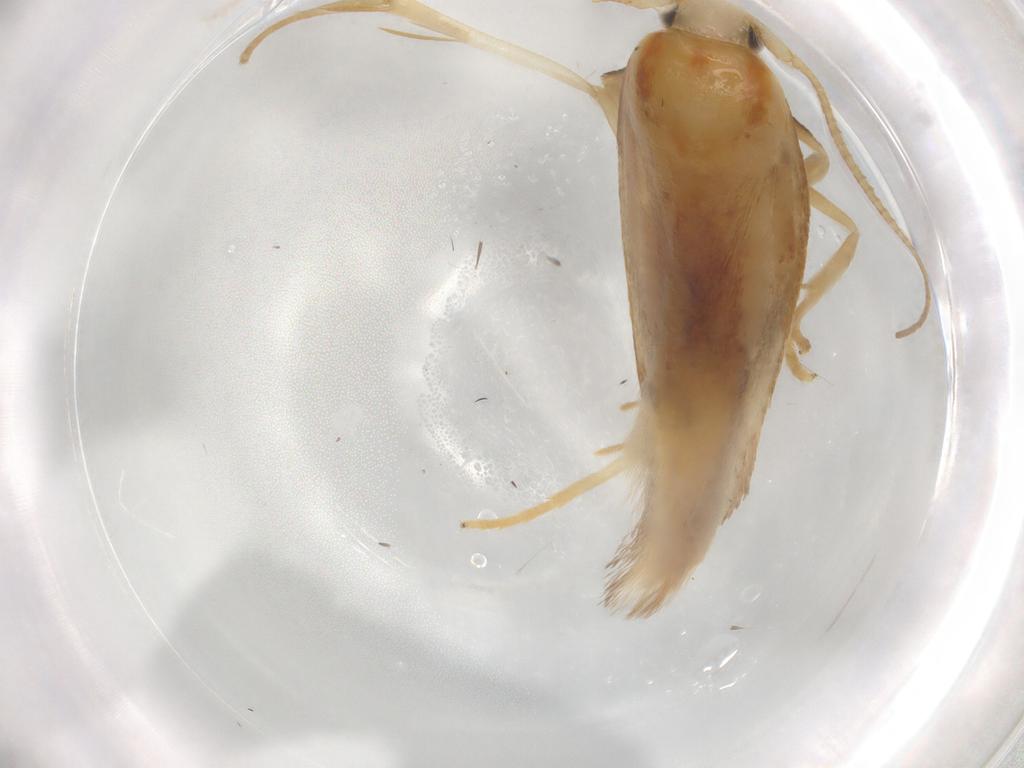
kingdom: Animalia
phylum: Arthropoda
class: Insecta
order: Lepidoptera
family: Geometridae
